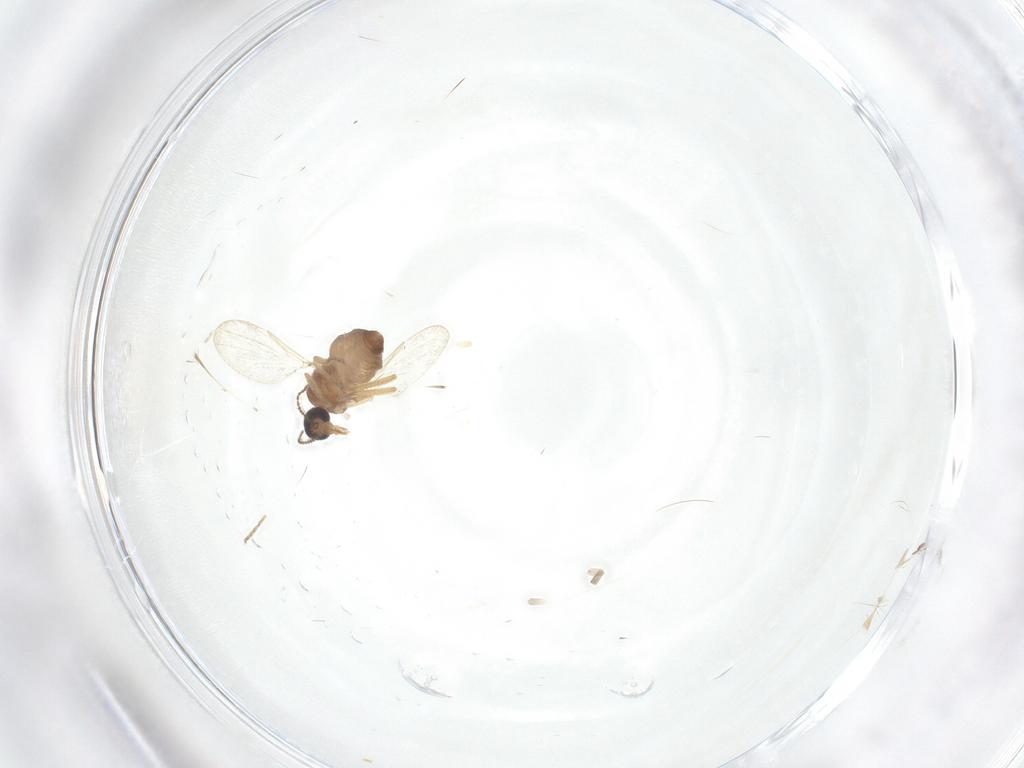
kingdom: Animalia
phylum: Arthropoda
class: Insecta
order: Diptera
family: Ceratopogonidae
